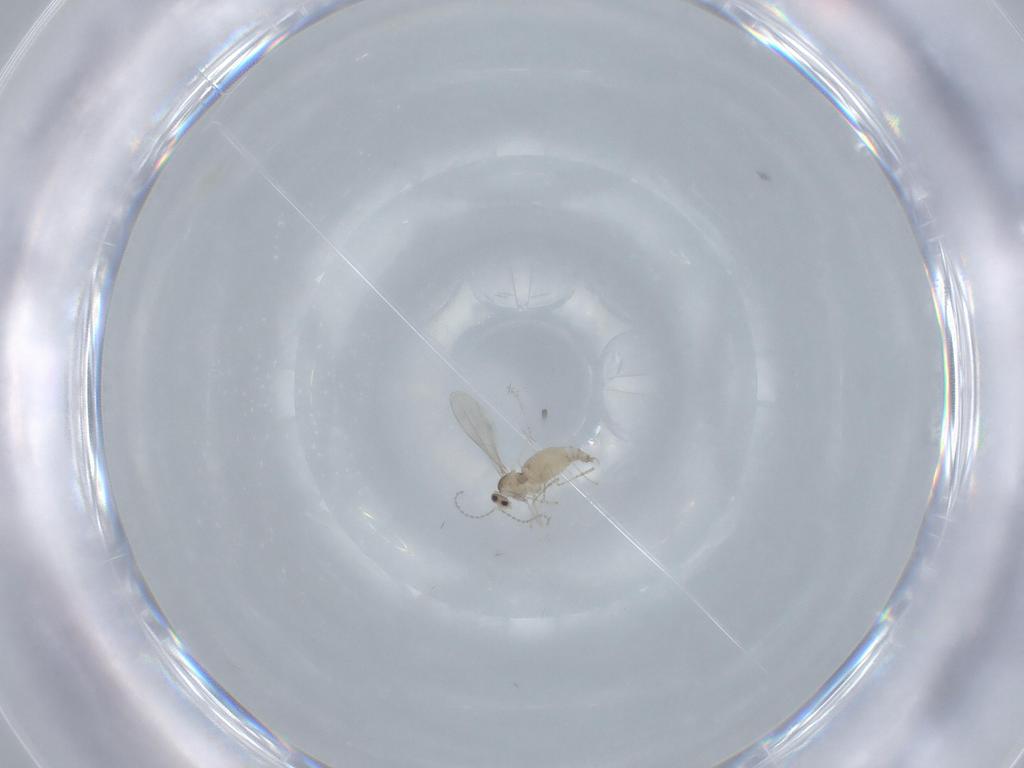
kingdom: Animalia
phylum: Arthropoda
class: Insecta
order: Diptera
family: Cecidomyiidae
